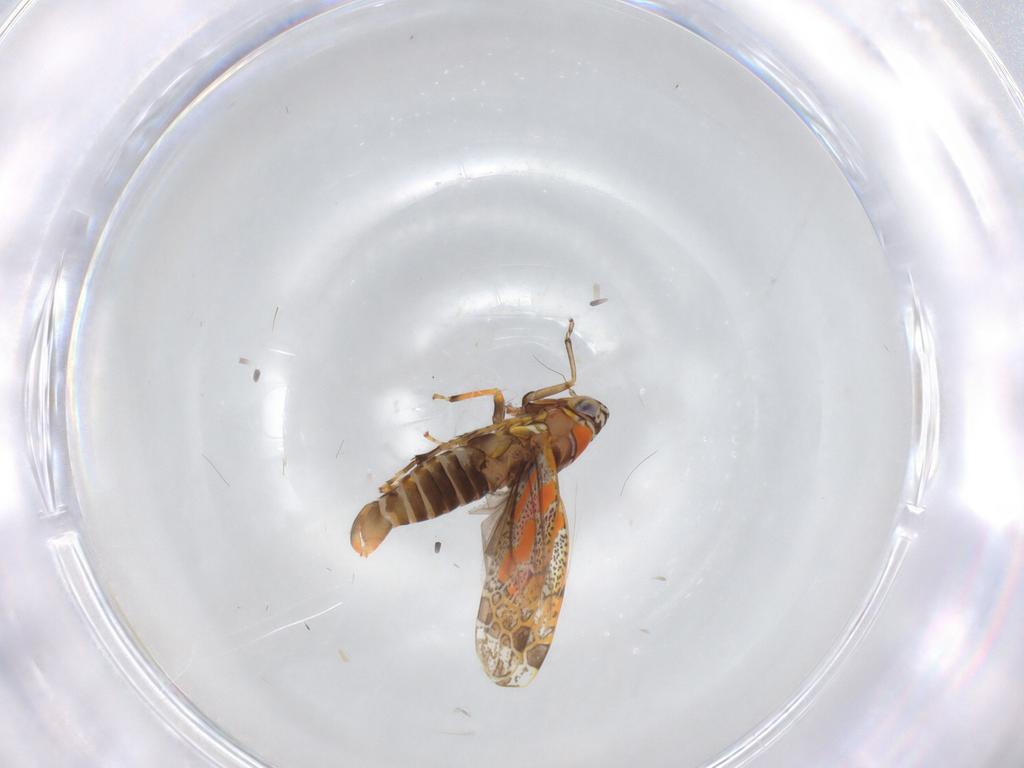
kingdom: Animalia
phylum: Arthropoda
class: Insecta
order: Hemiptera
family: Cicadellidae
